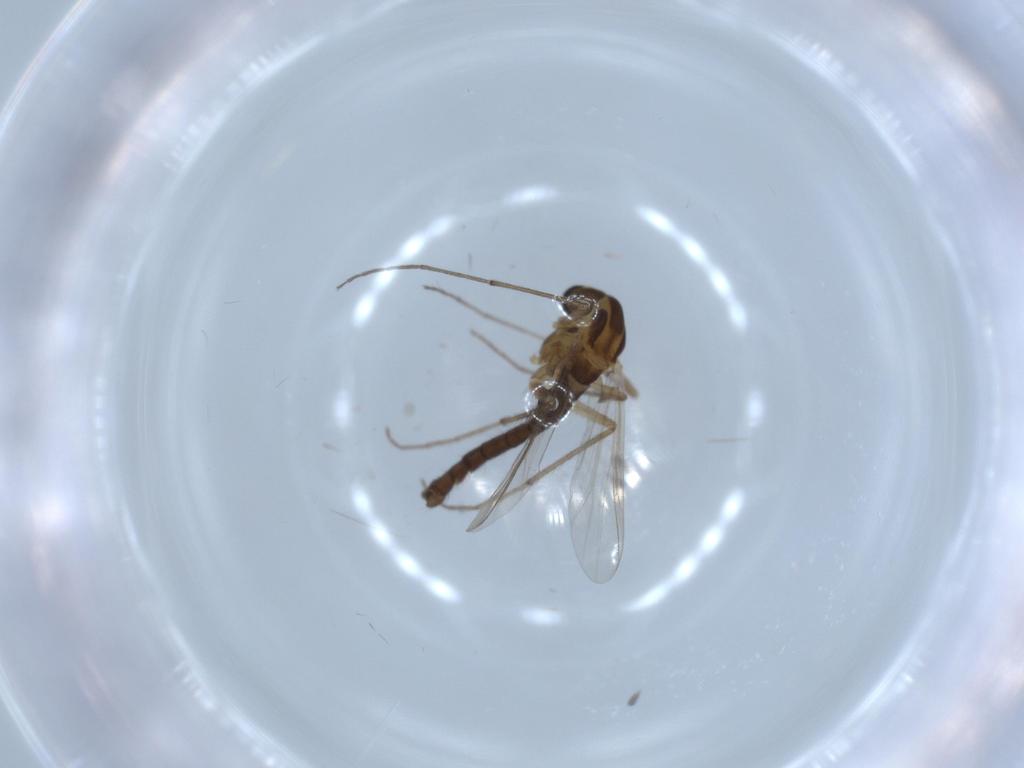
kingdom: Animalia
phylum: Arthropoda
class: Insecta
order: Diptera
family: Chironomidae
